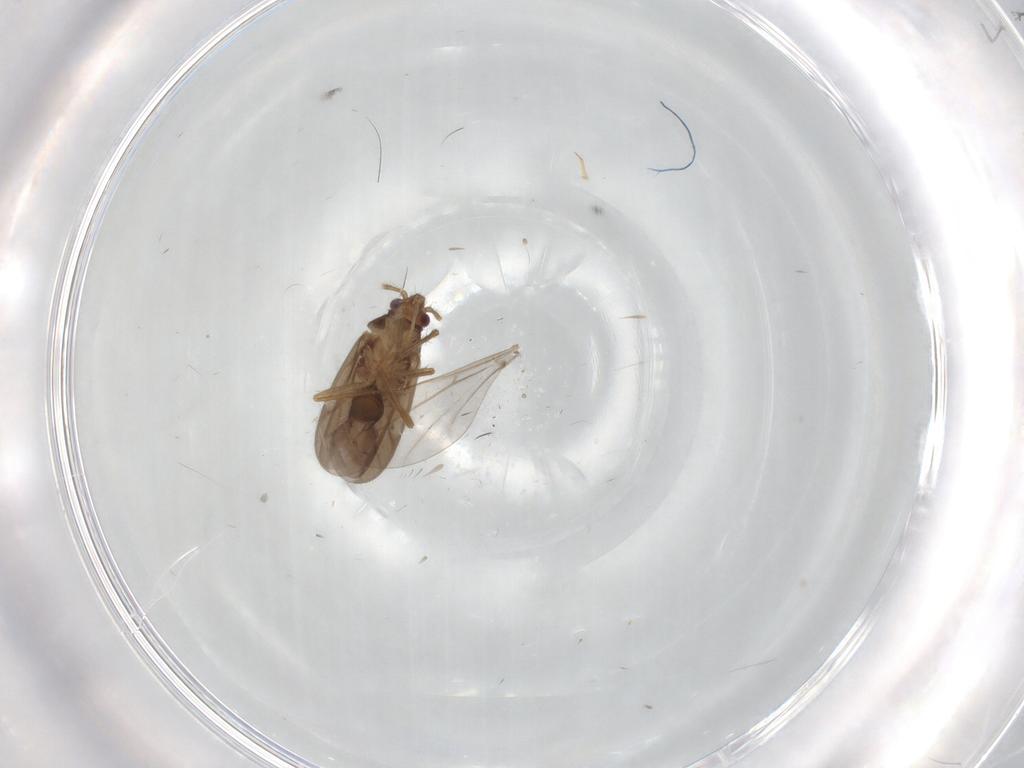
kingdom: Animalia
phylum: Arthropoda
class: Insecta
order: Hemiptera
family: Ceratocombidae
